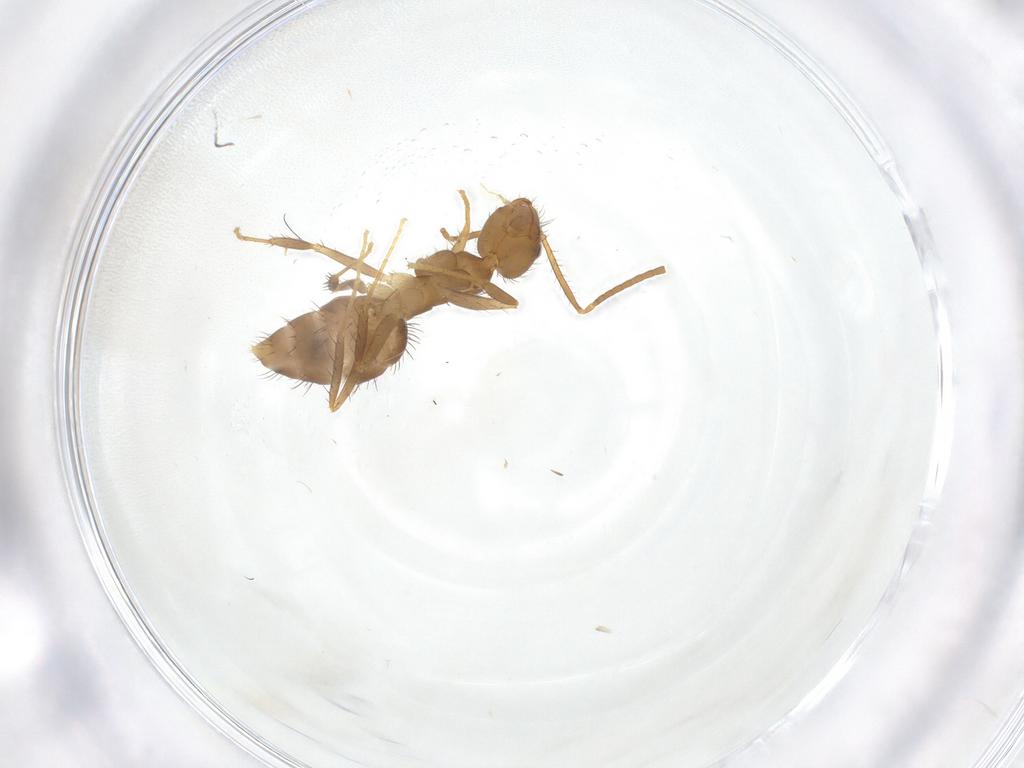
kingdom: Animalia
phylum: Arthropoda
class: Insecta
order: Hymenoptera
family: Formicidae
